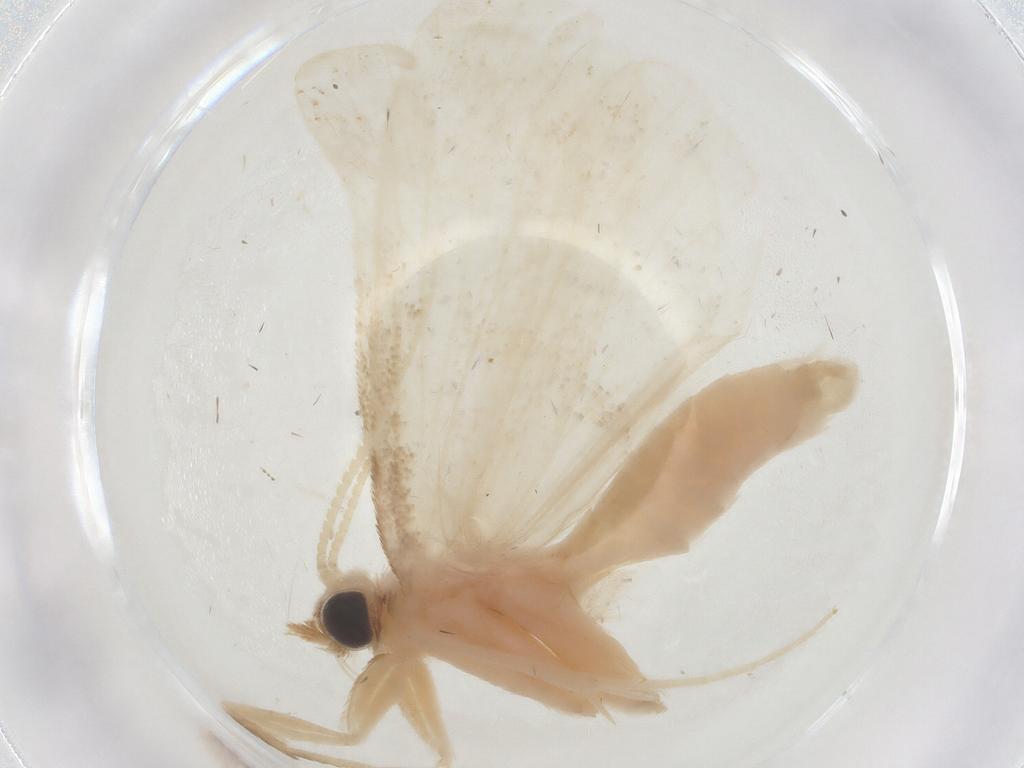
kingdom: Animalia
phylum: Arthropoda
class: Insecta
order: Lepidoptera
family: Crambidae
